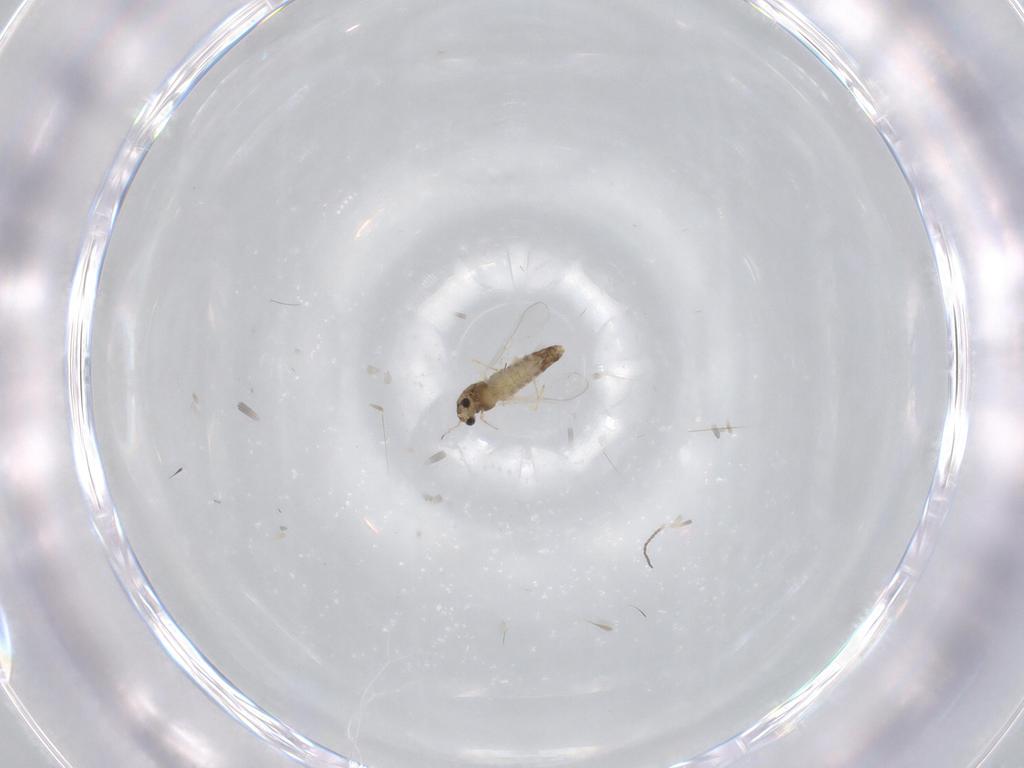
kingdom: Animalia
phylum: Arthropoda
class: Insecta
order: Diptera
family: Chironomidae
